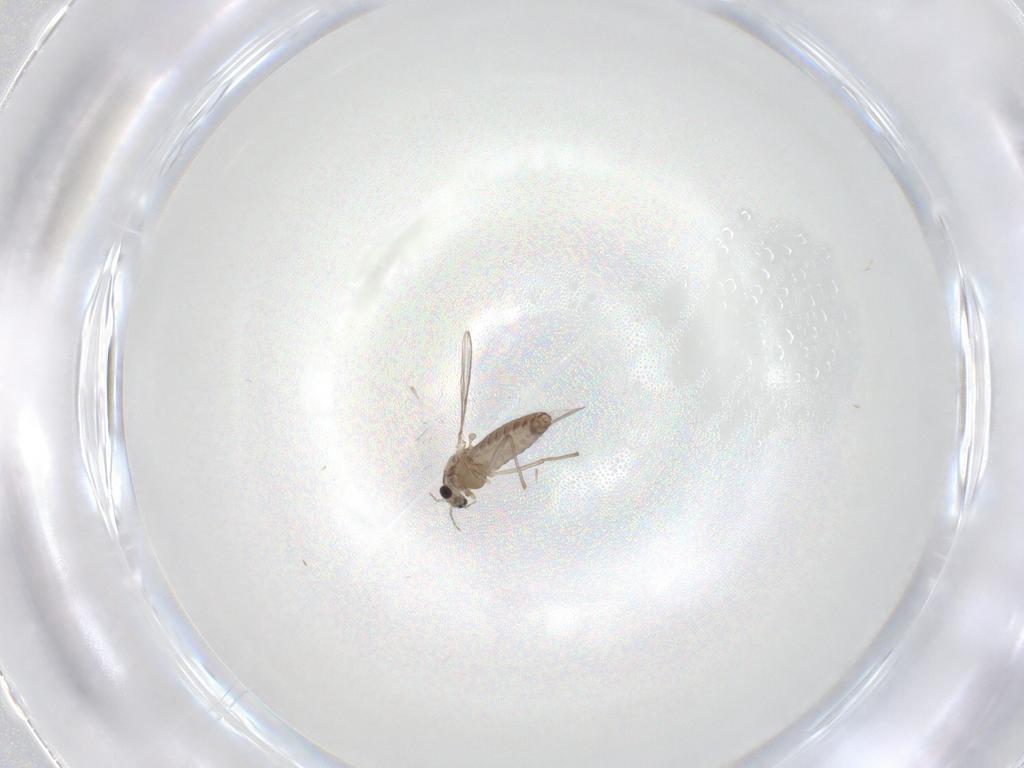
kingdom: Animalia
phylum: Arthropoda
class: Insecta
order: Diptera
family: Chironomidae
